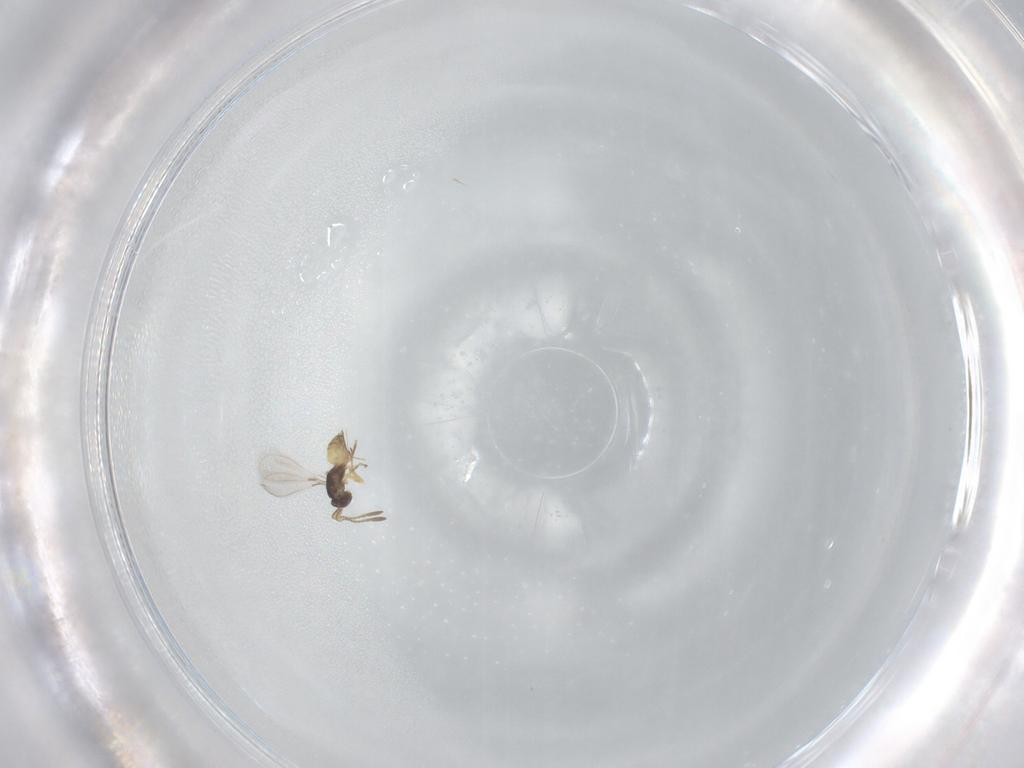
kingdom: Animalia
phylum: Arthropoda
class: Insecta
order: Hymenoptera
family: Mymaridae
